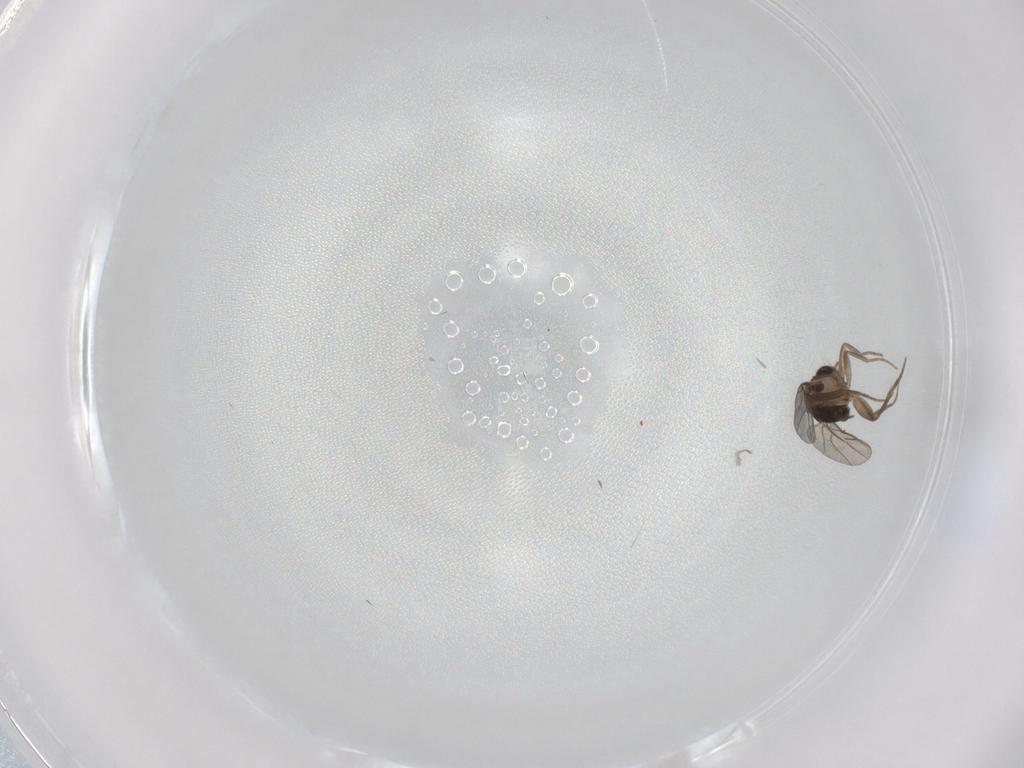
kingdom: Animalia
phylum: Arthropoda
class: Insecta
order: Diptera
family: Phoridae
